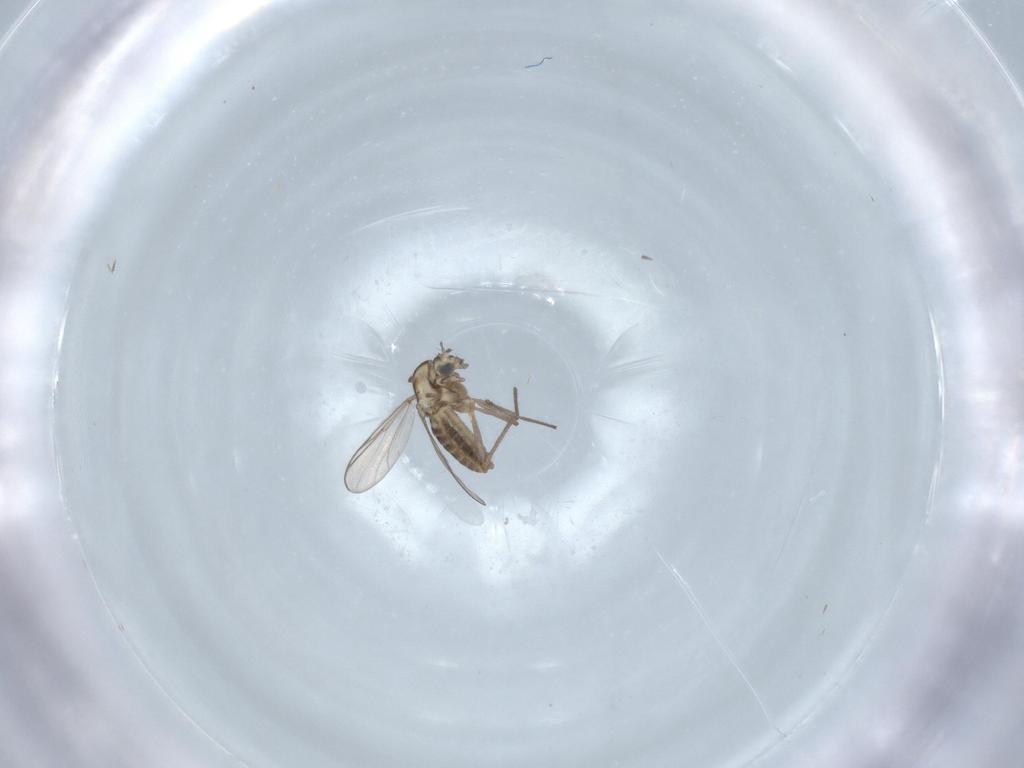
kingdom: Animalia
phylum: Arthropoda
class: Insecta
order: Diptera
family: Chironomidae
